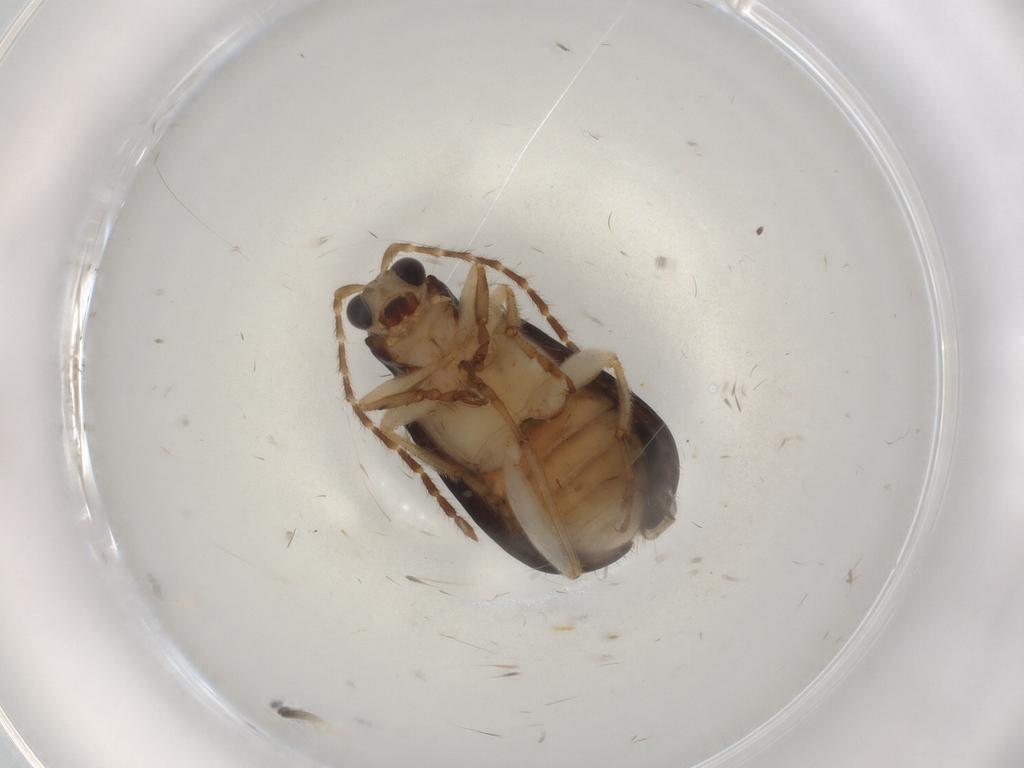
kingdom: Animalia
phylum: Arthropoda
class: Insecta
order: Coleoptera
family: Chrysomelidae
